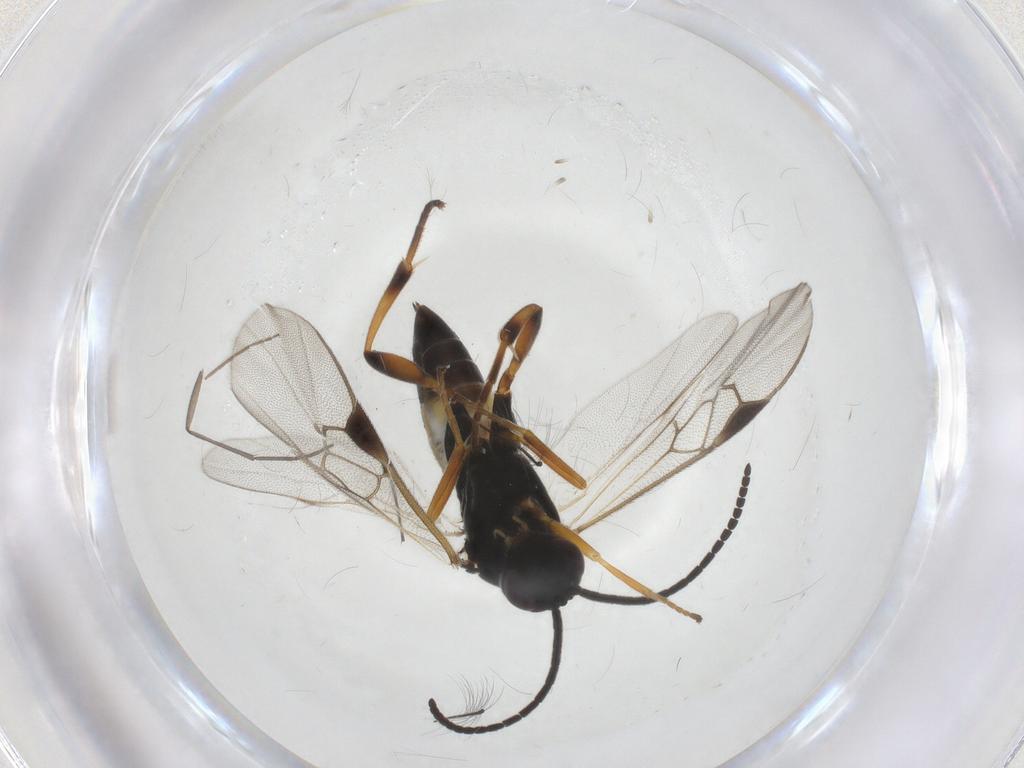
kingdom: Animalia
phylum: Arthropoda
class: Insecta
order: Hymenoptera
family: Braconidae
